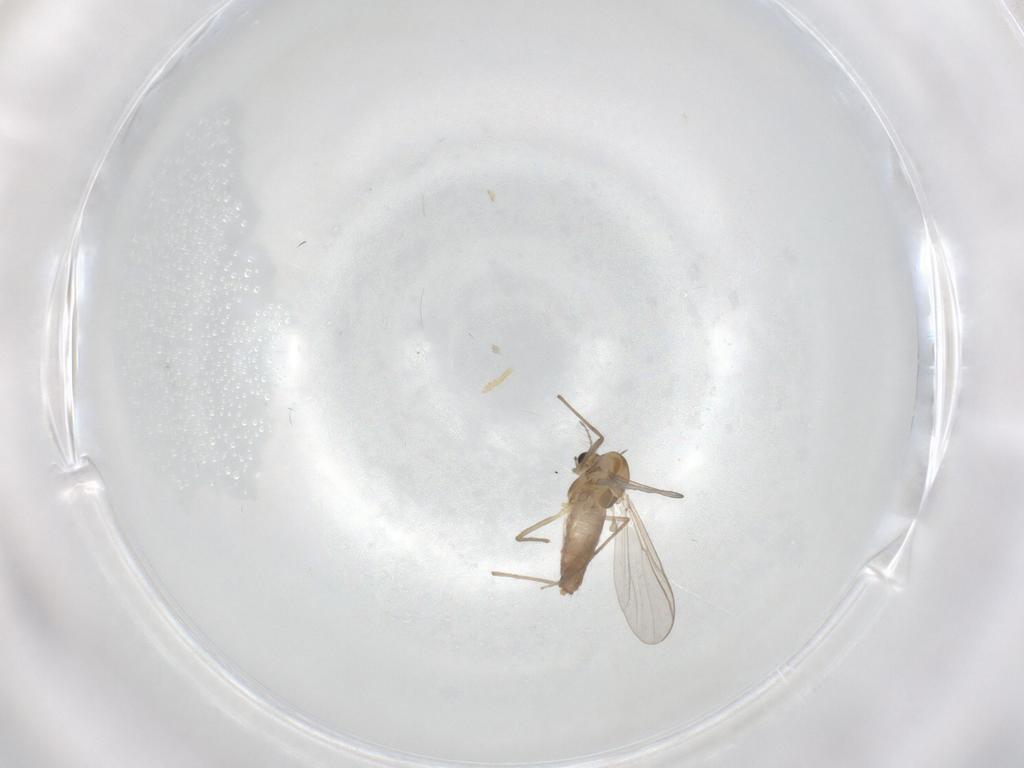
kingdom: Animalia
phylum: Arthropoda
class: Insecta
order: Diptera
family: Chironomidae
